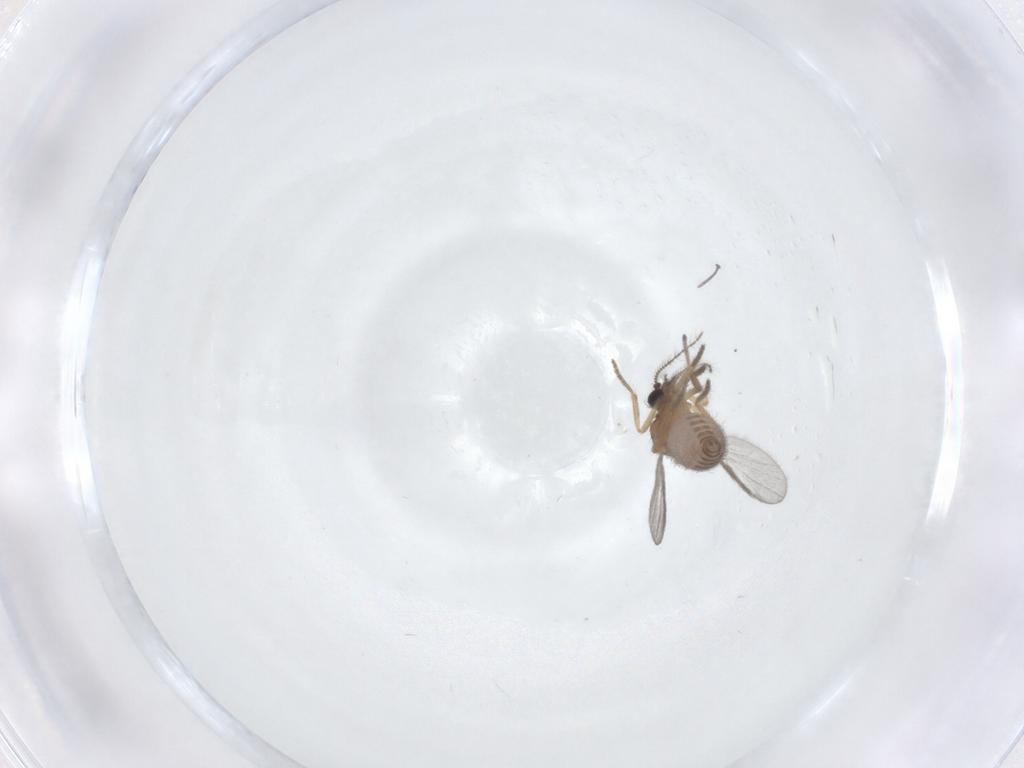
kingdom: Animalia
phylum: Arthropoda
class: Insecta
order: Diptera
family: Ceratopogonidae
